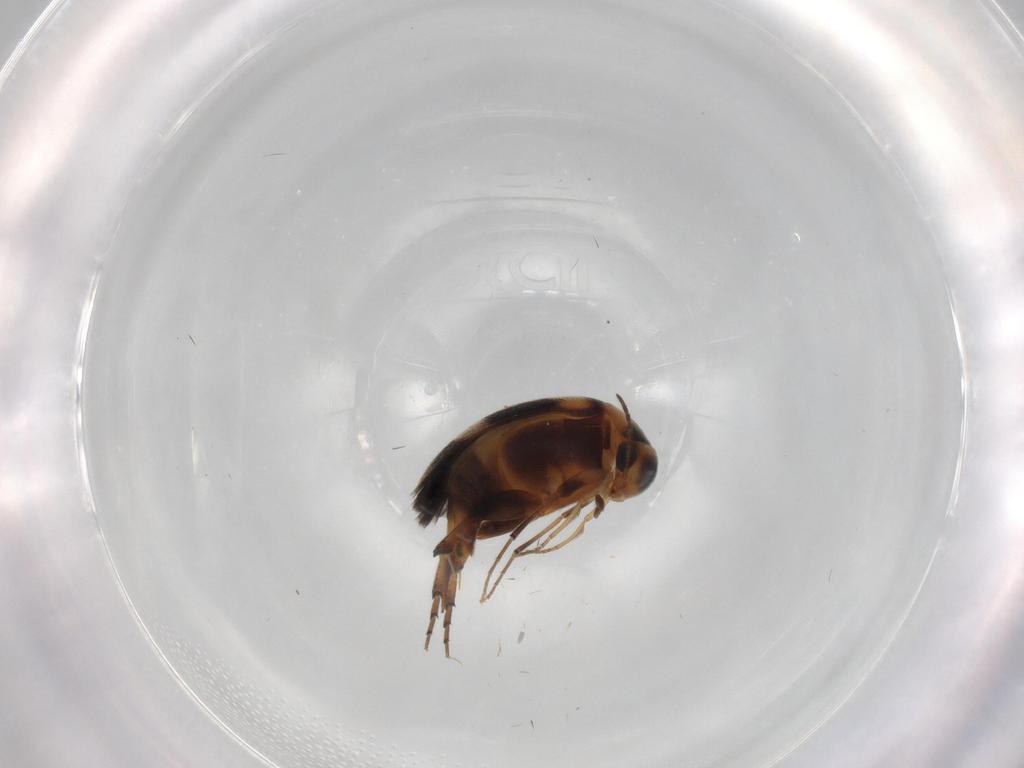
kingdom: Animalia
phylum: Arthropoda
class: Insecta
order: Coleoptera
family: Mordellidae
